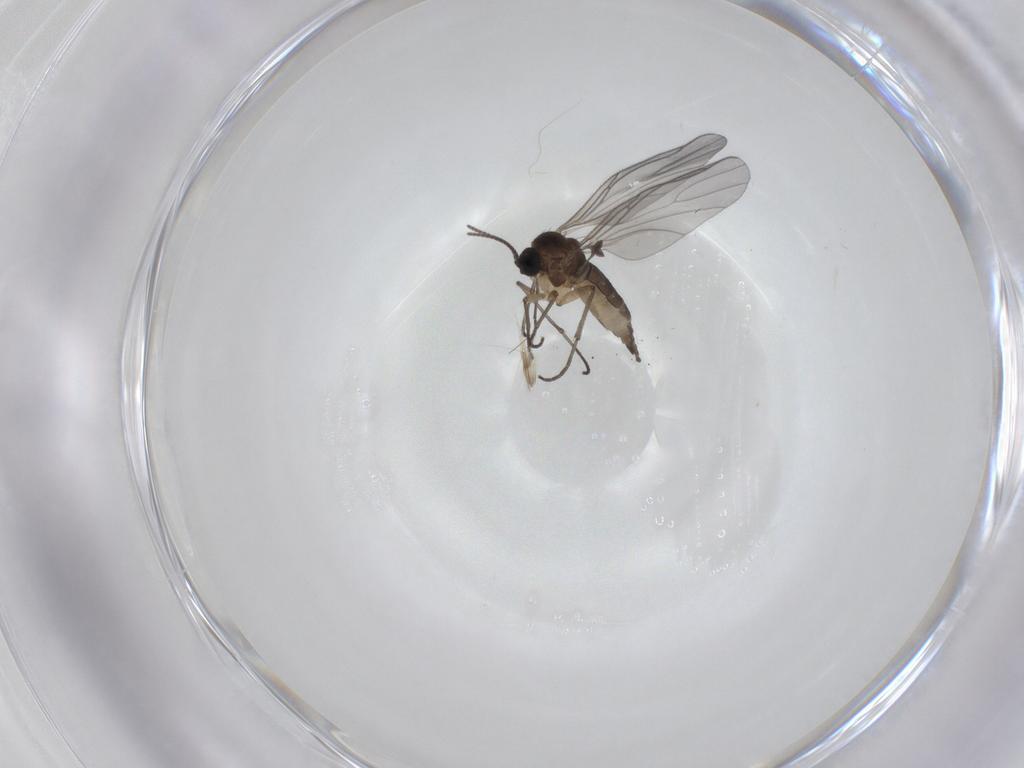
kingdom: Animalia
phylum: Arthropoda
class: Insecta
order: Diptera
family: Sciaridae
